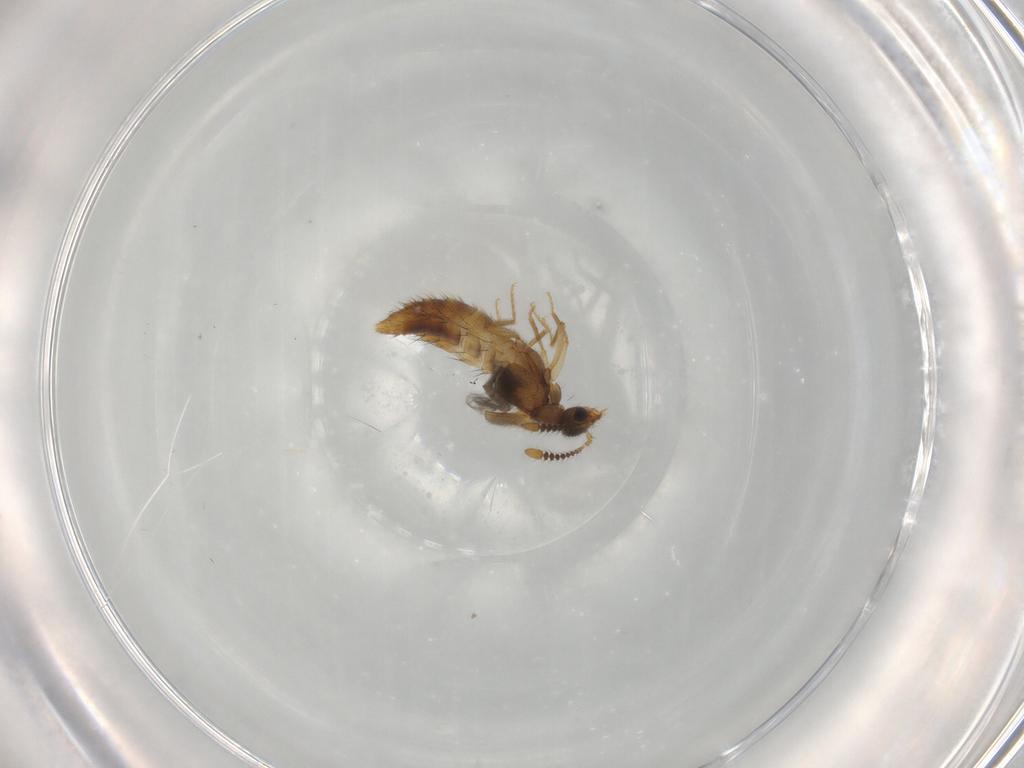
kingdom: Animalia
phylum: Arthropoda
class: Insecta
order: Coleoptera
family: Staphylinidae
